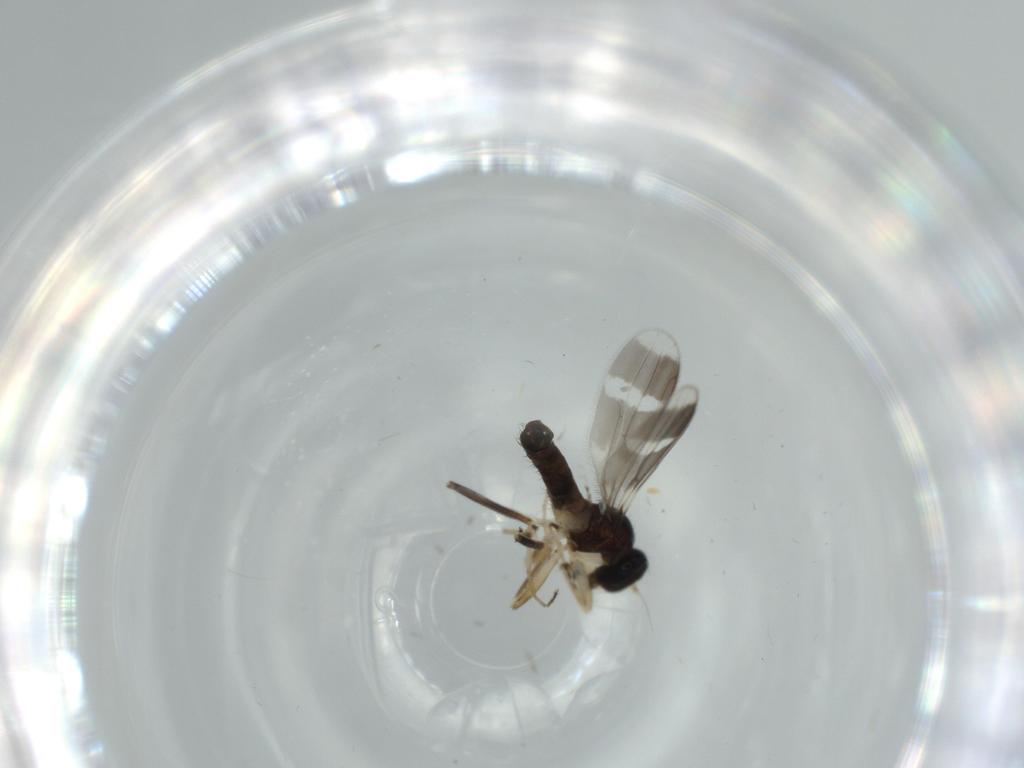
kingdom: Animalia
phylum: Arthropoda
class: Insecta
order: Diptera
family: Hybotidae
